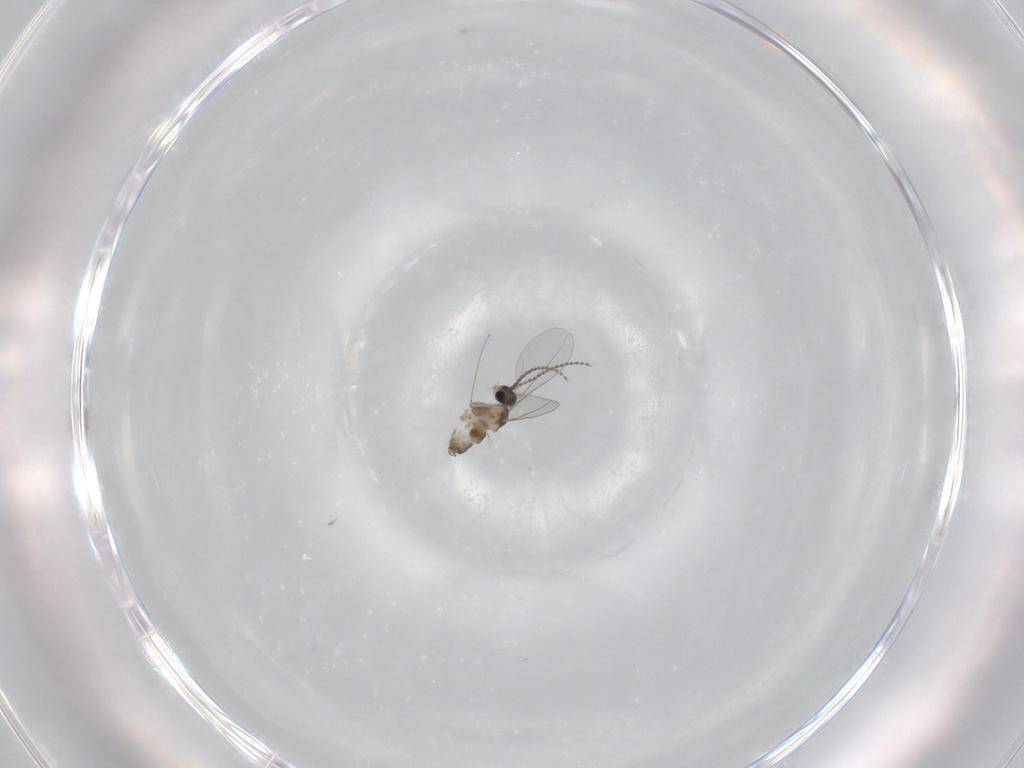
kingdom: Animalia
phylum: Arthropoda
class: Insecta
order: Diptera
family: Cecidomyiidae
